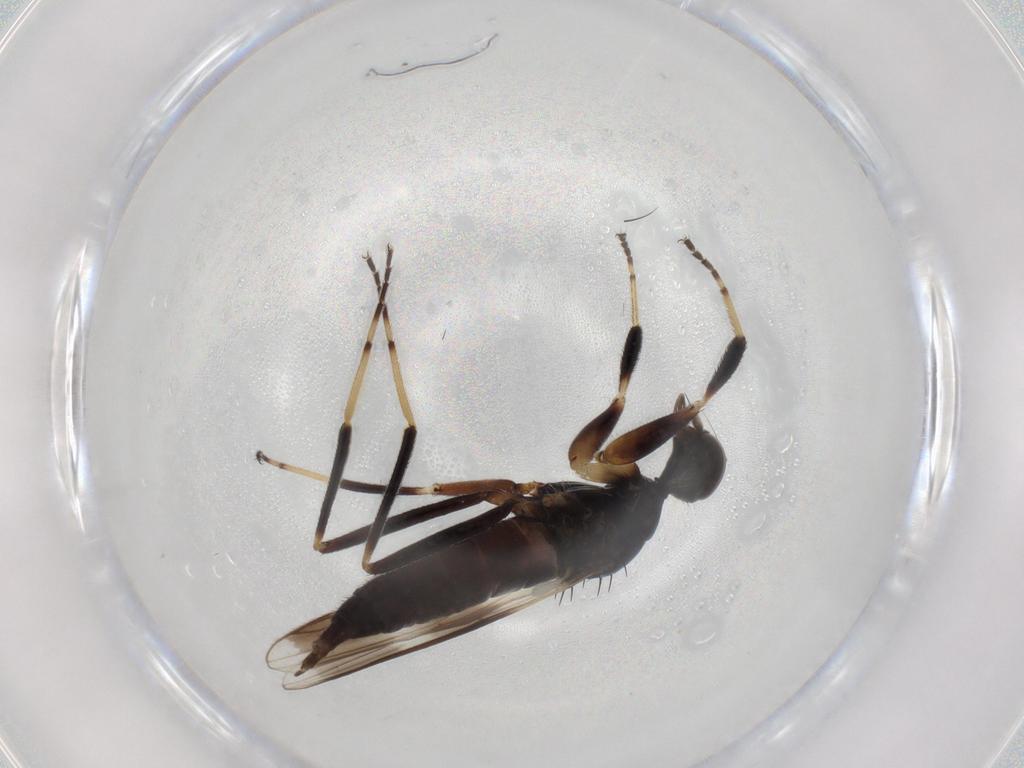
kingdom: Animalia
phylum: Arthropoda
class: Insecta
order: Diptera
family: Hybotidae
